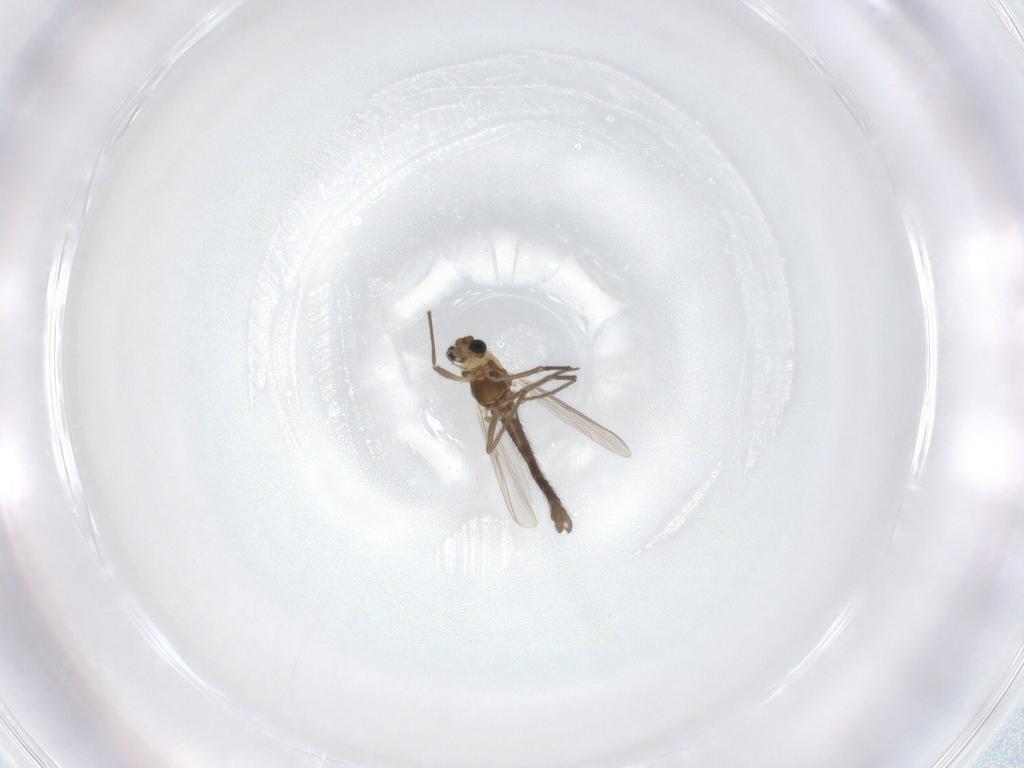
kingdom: Animalia
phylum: Arthropoda
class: Insecta
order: Diptera
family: Chironomidae
